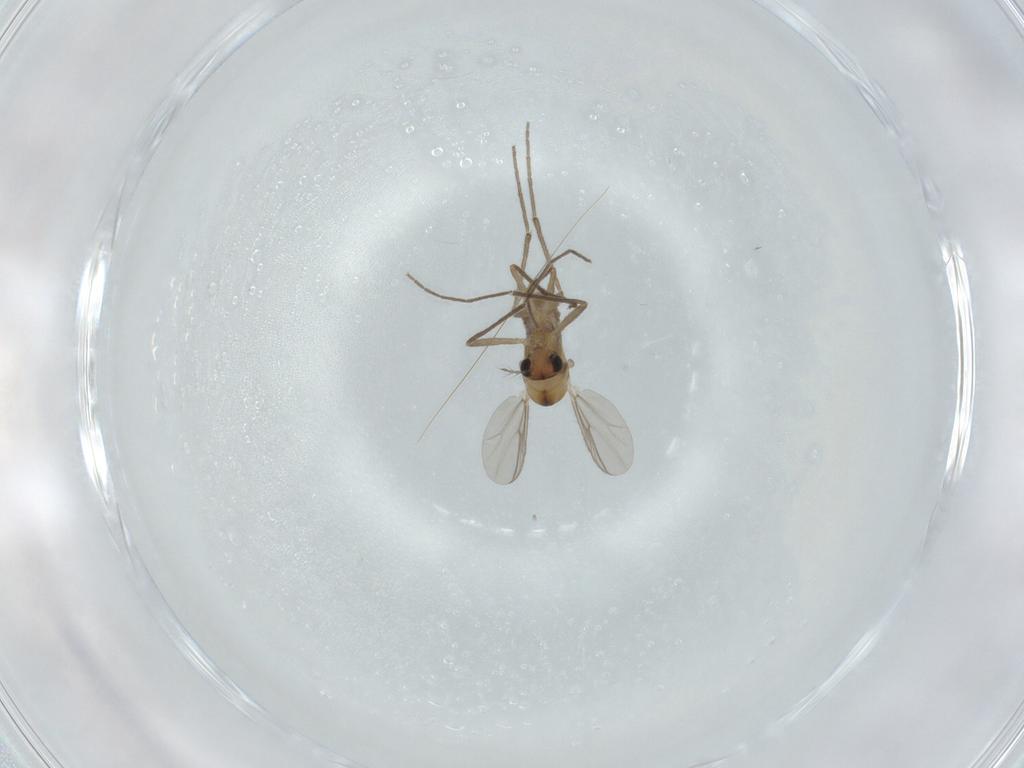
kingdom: Animalia
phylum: Arthropoda
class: Insecta
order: Diptera
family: Chironomidae
